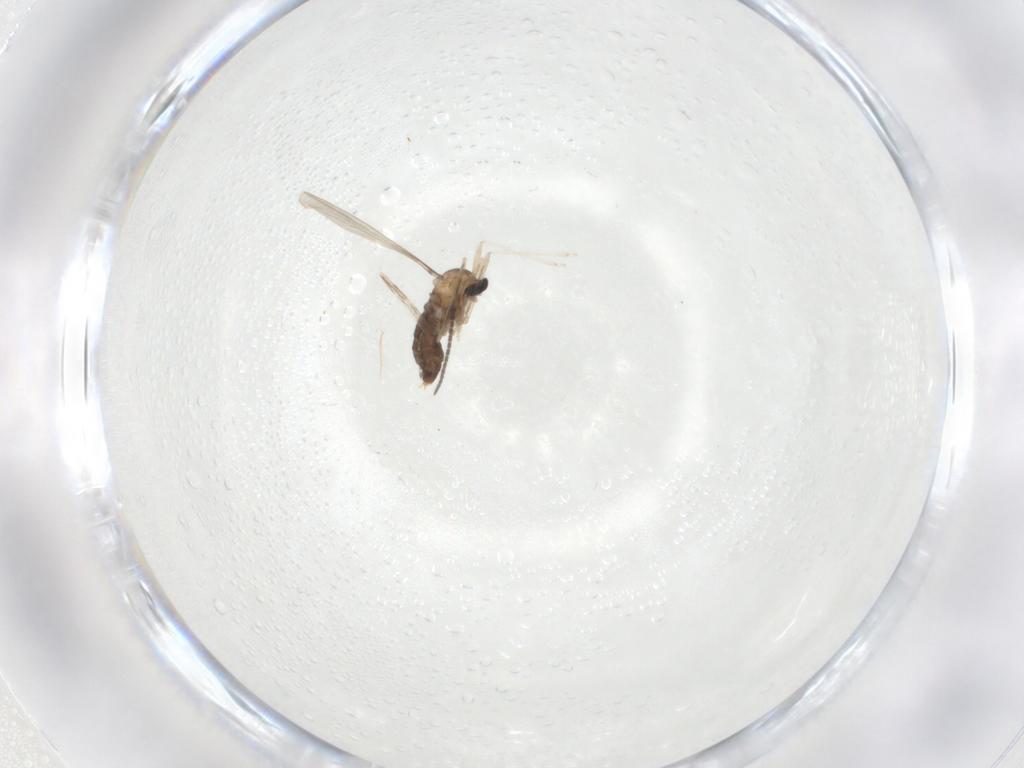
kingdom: Animalia
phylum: Arthropoda
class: Insecta
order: Diptera
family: Cecidomyiidae
